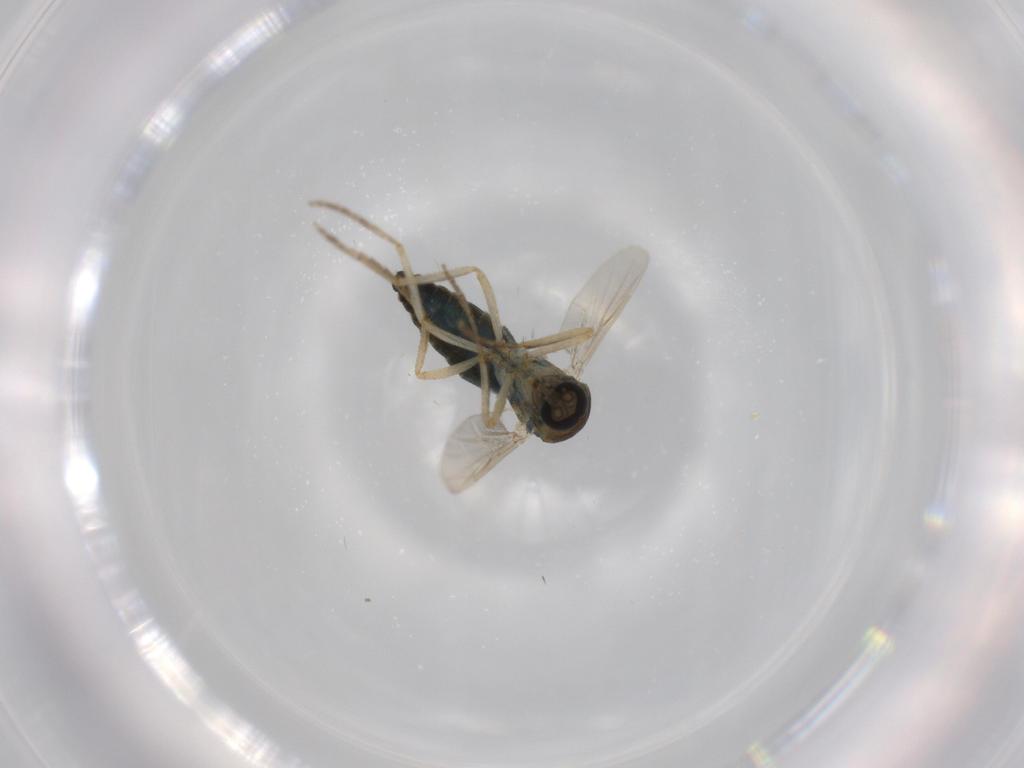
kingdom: Animalia
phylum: Arthropoda
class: Insecta
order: Diptera
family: Cecidomyiidae
